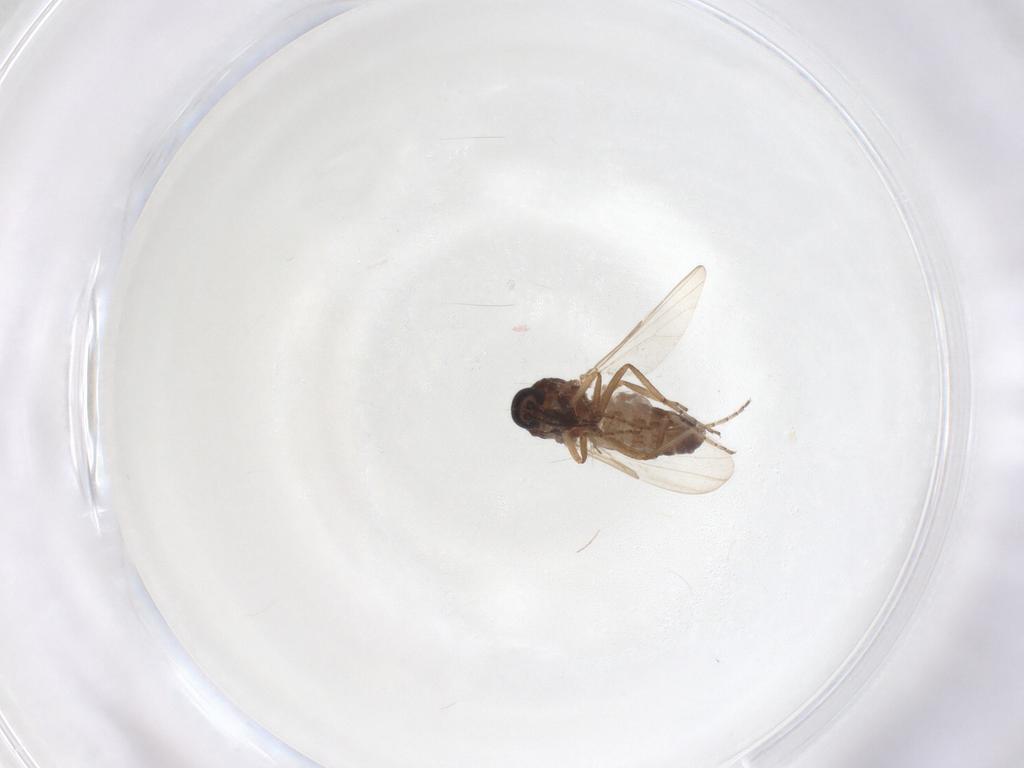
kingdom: Animalia
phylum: Arthropoda
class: Insecta
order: Diptera
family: Ceratopogonidae
